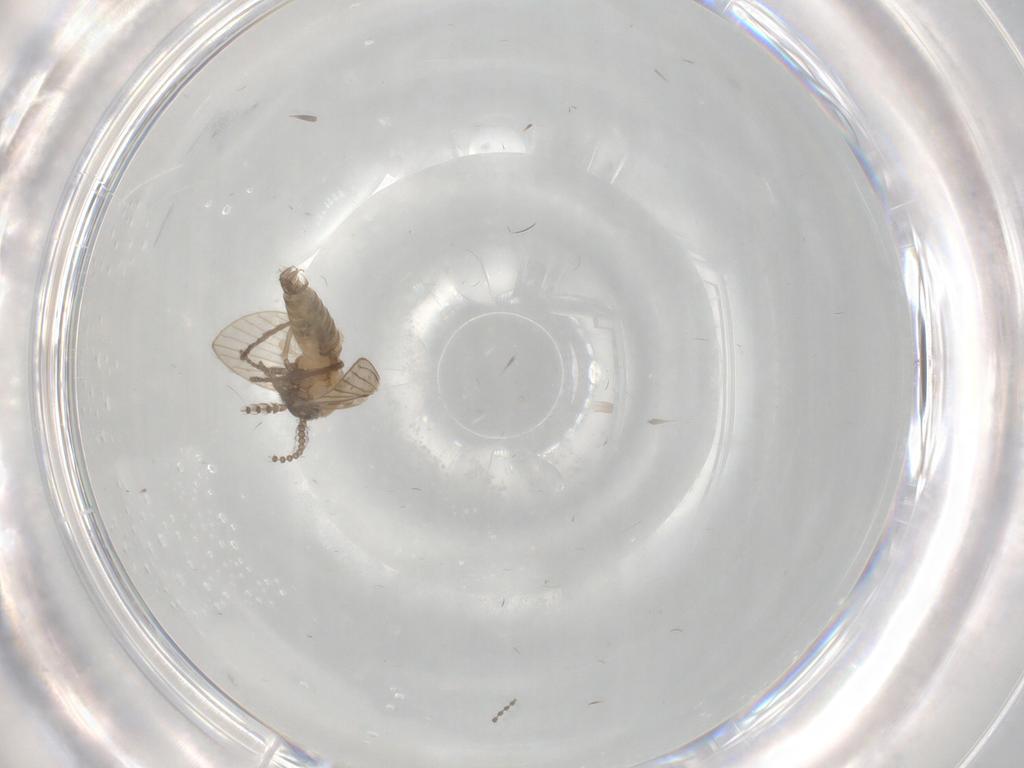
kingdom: Animalia
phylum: Arthropoda
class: Insecta
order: Diptera
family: Psychodidae
